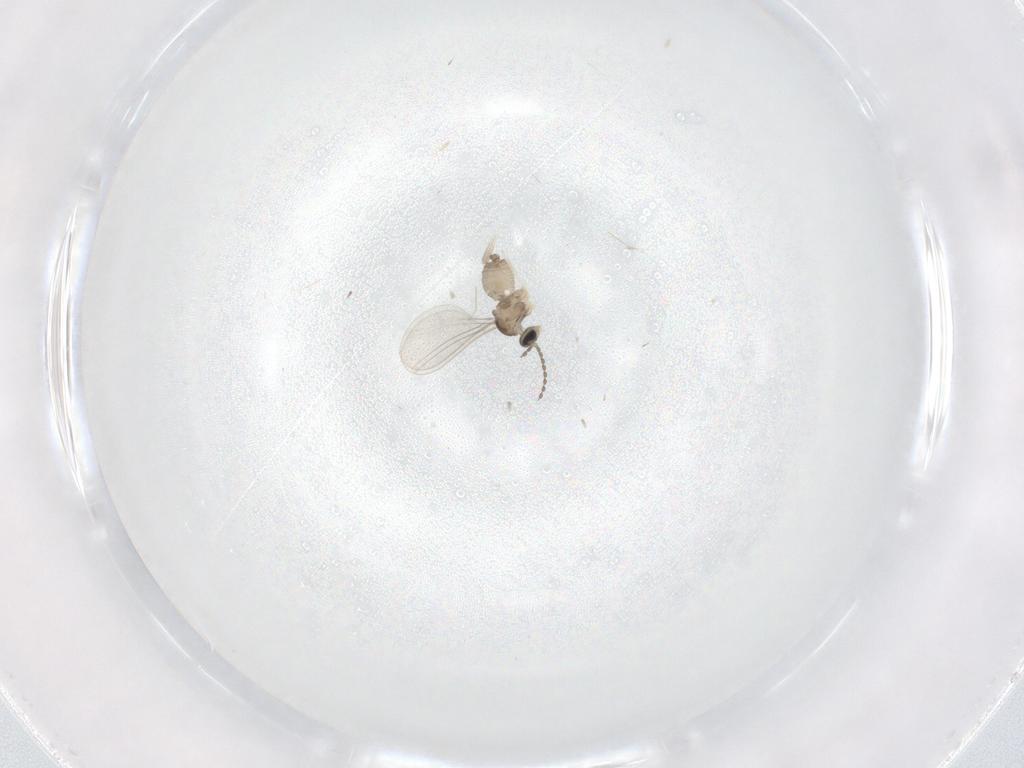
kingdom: Animalia
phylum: Arthropoda
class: Insecta
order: Diptera
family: Cecidomyiidae
